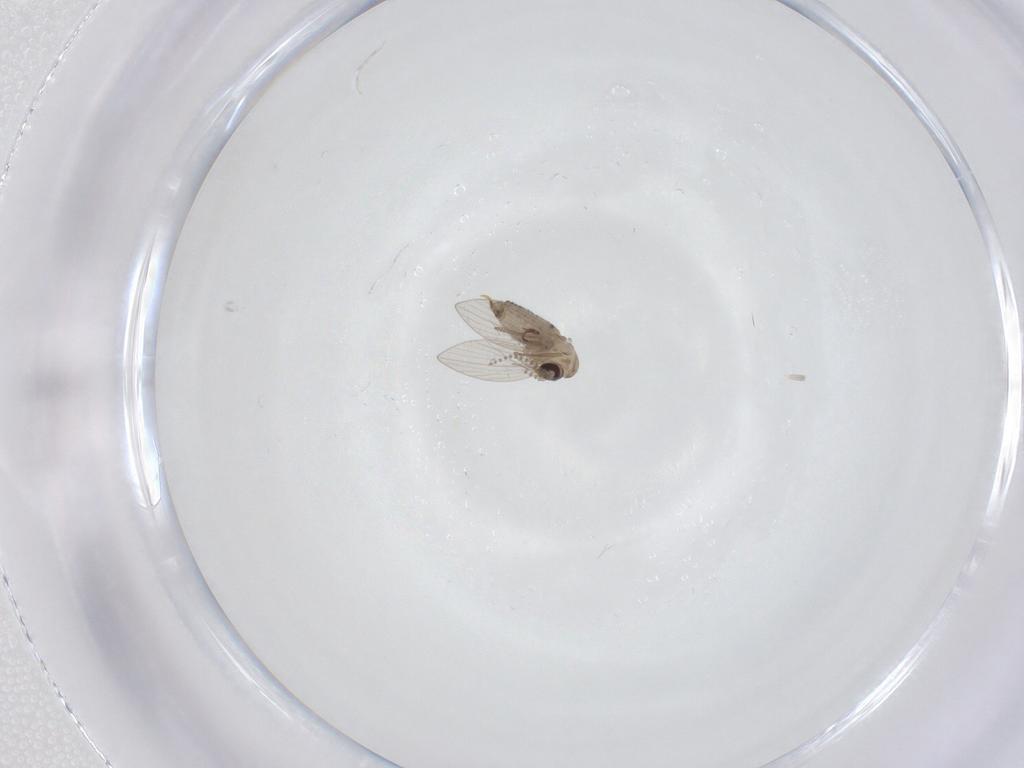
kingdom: Animalia
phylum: Arthropoda
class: Insecta
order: Diptera
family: Psychodidae
